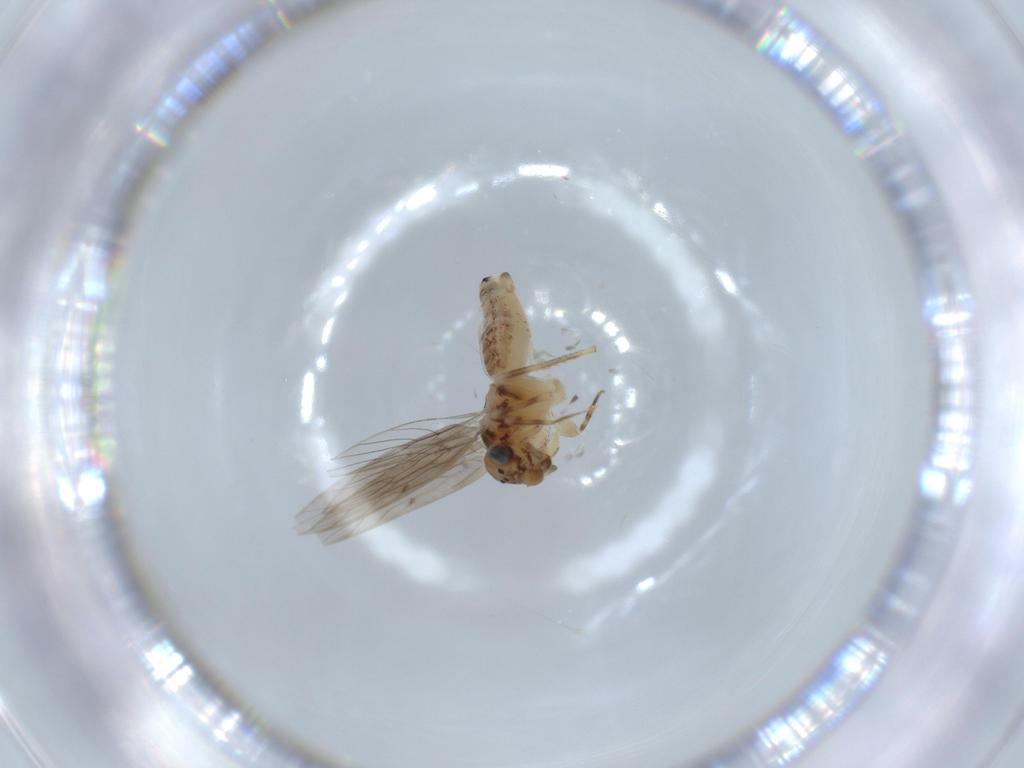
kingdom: Animalia
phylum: Arthropoda
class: Insecta
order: Psocodea
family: Lepidopsocidae
